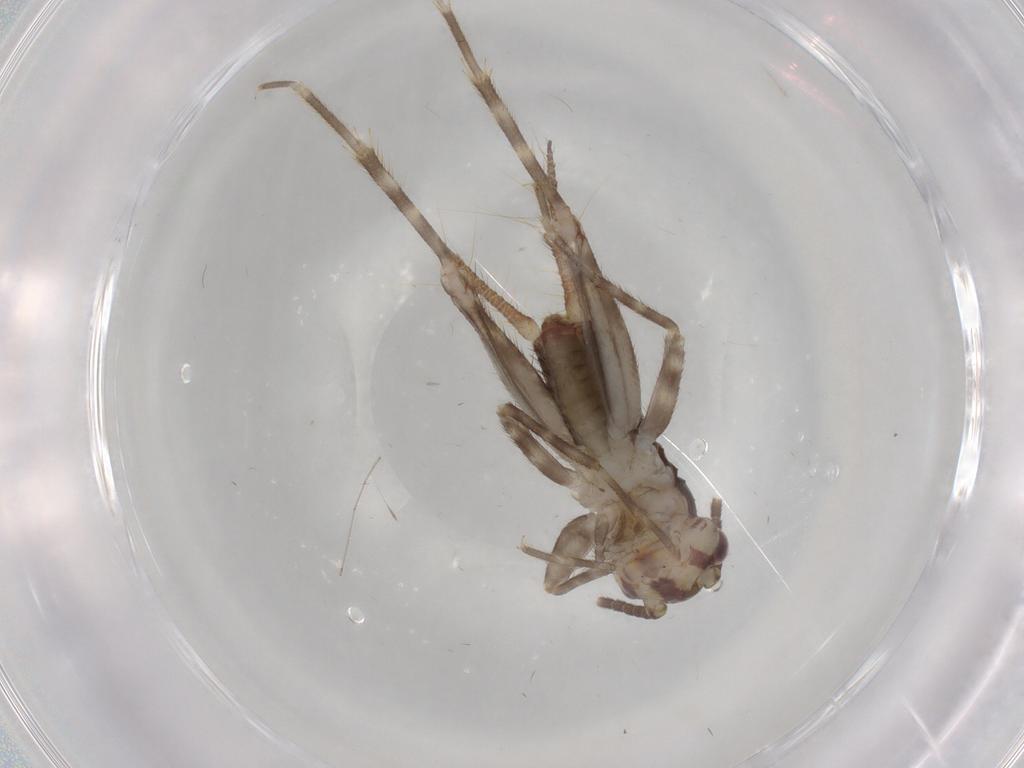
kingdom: Animalia
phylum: Arthropoda
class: Insecta
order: Orthoptera
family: Gryllidae
